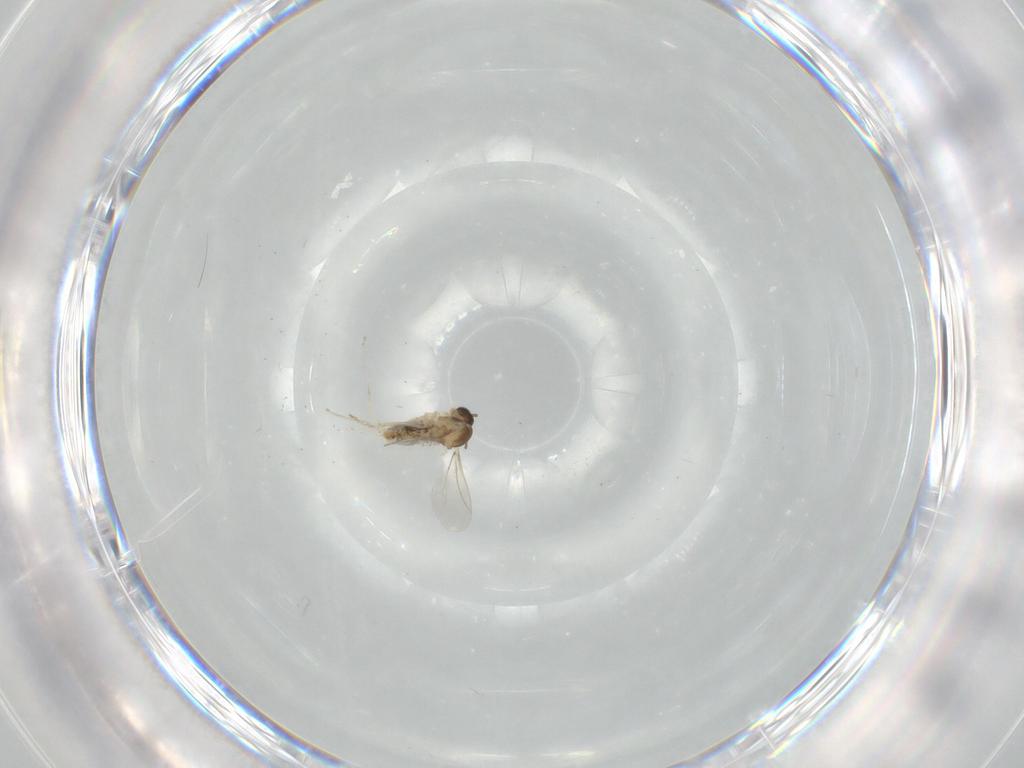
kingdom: Animalia
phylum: Arthropoda
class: Insecta
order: Diptera
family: Cecidomyiidae
